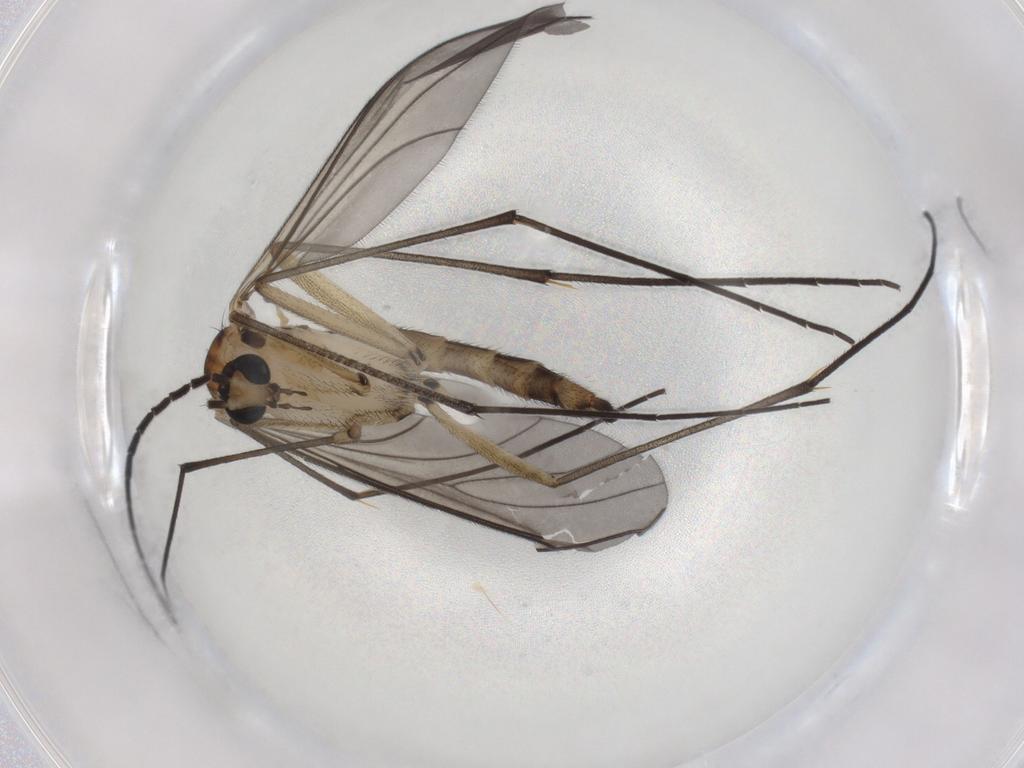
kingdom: Animalia
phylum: Arthropoda
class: Insecta
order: Diptera
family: Sciaridae
